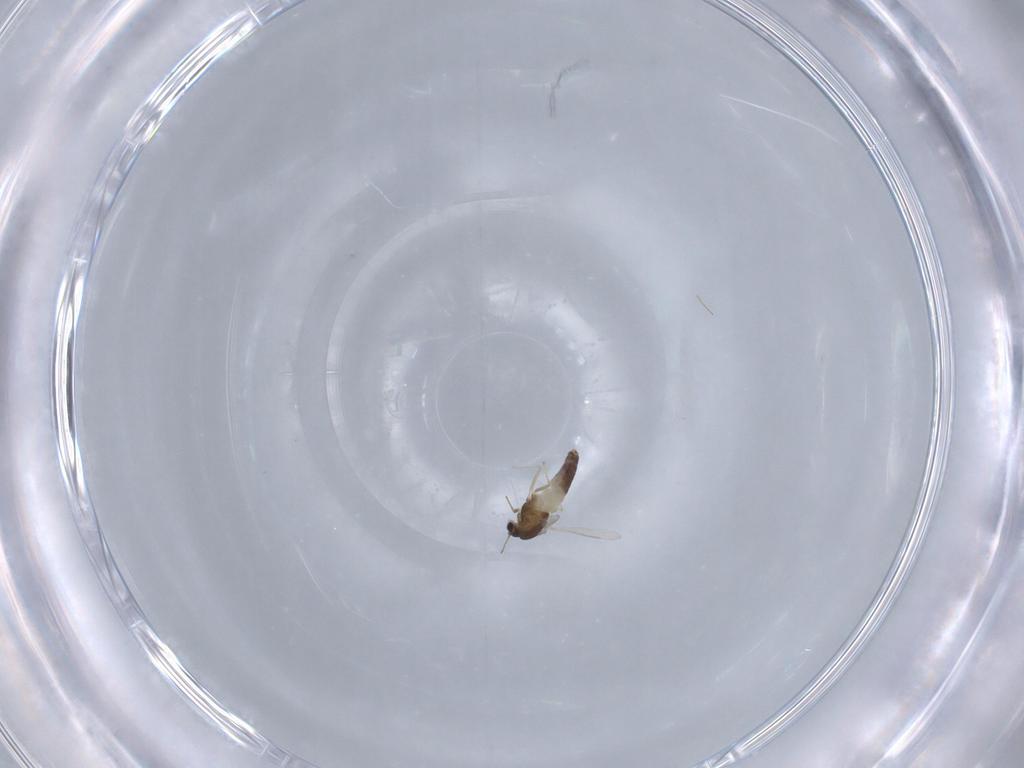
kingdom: Animalia
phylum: Arthropoda
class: Insecta
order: Diptera
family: Chironomidae
